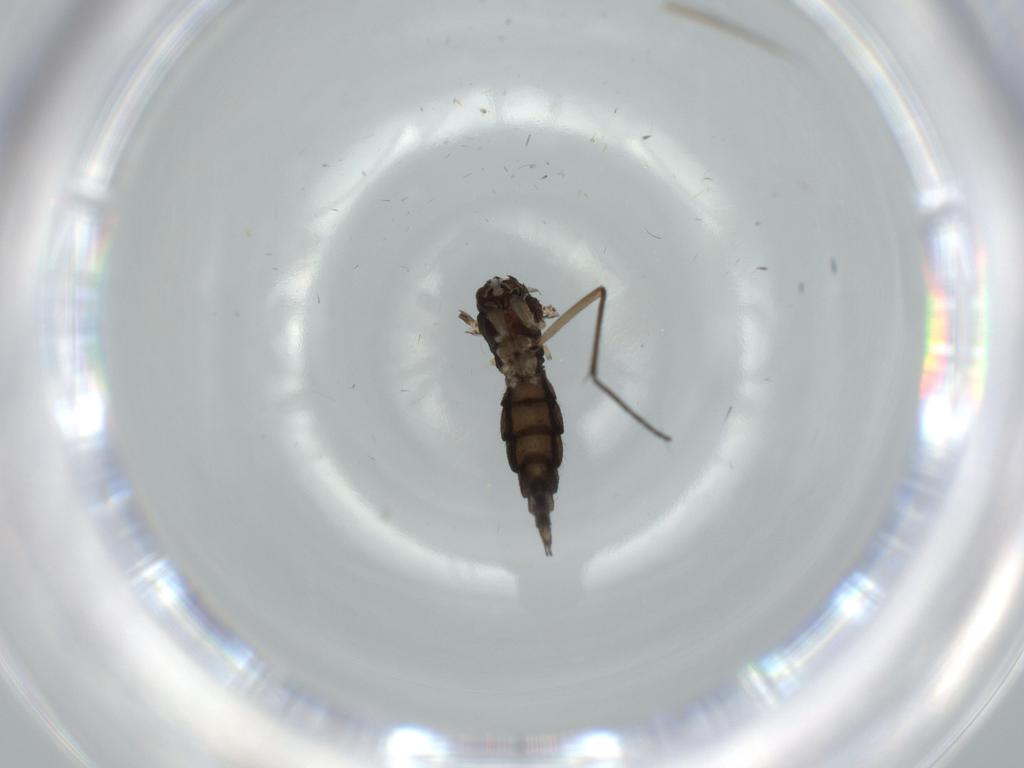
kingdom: Animalia
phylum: Arthropoda
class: Insecta
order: Diptera
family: Sciaridae
